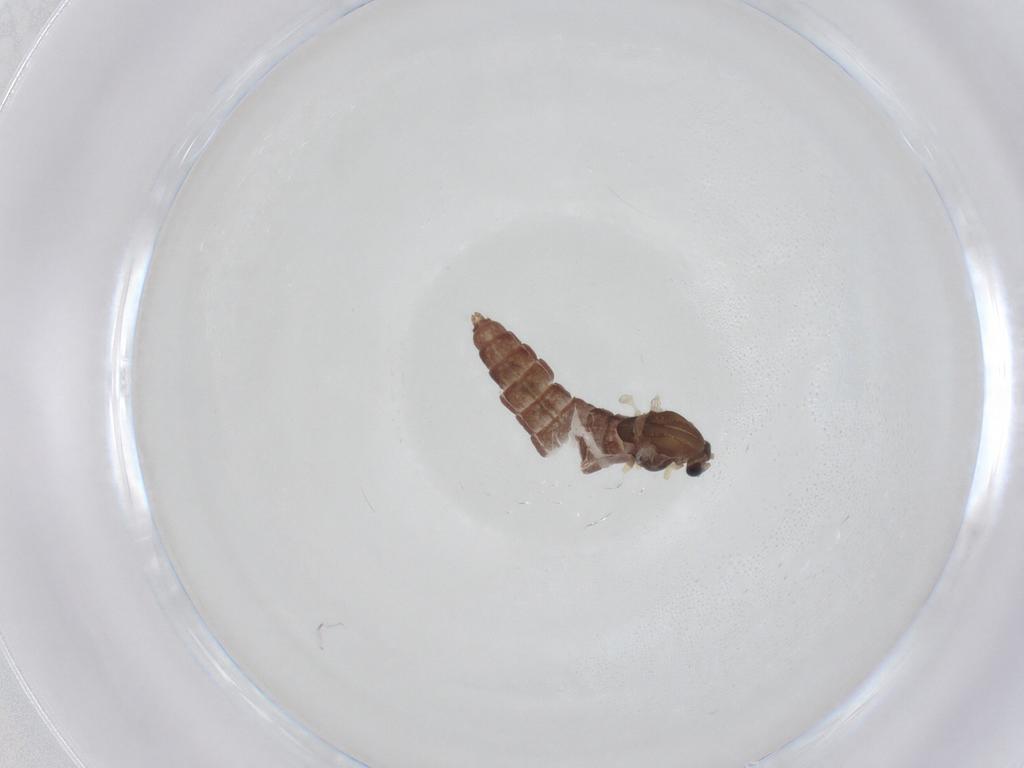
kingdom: Animalia
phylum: Arthropoda
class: Insecta
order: Diptera
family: Chironomidae
